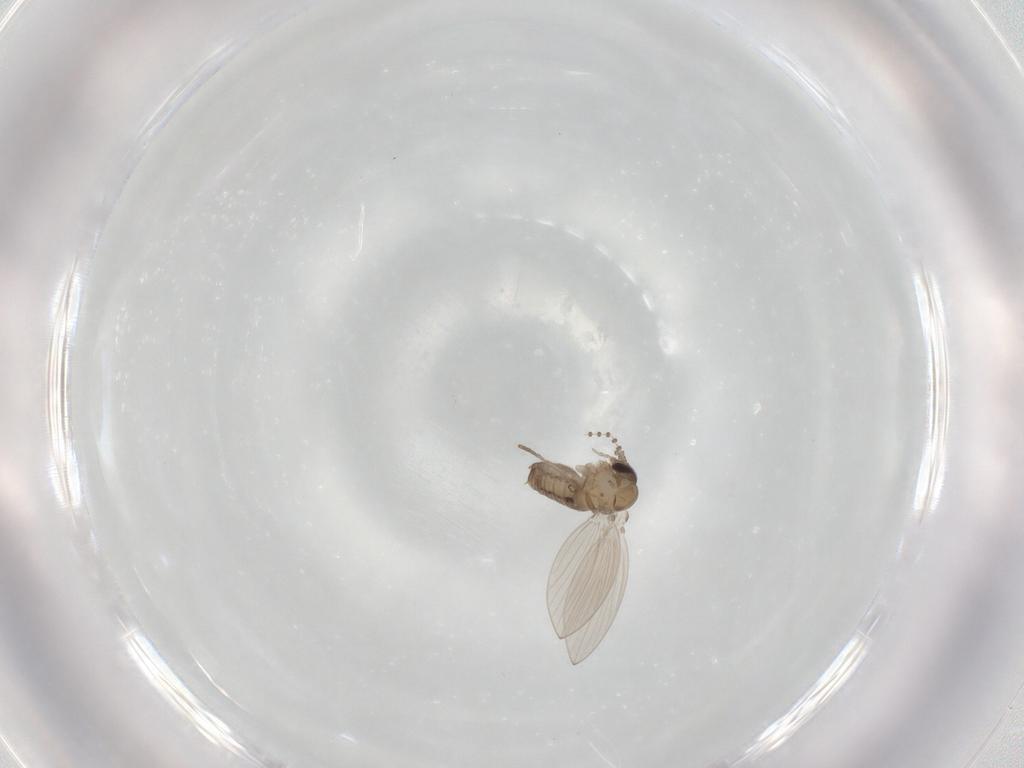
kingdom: Animalia
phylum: Arthropoda
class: Insecta
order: Diptera
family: Psychodidae
